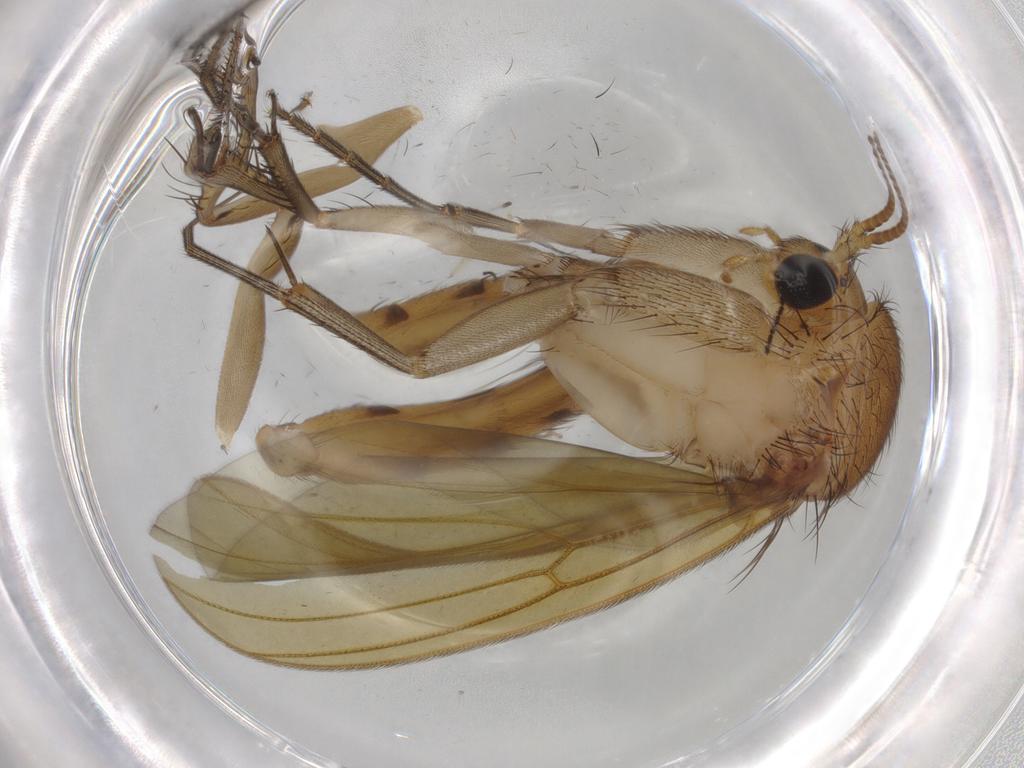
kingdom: Animalia
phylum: Arthropoda
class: Insecta
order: Diptera
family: Mycetophilidae
